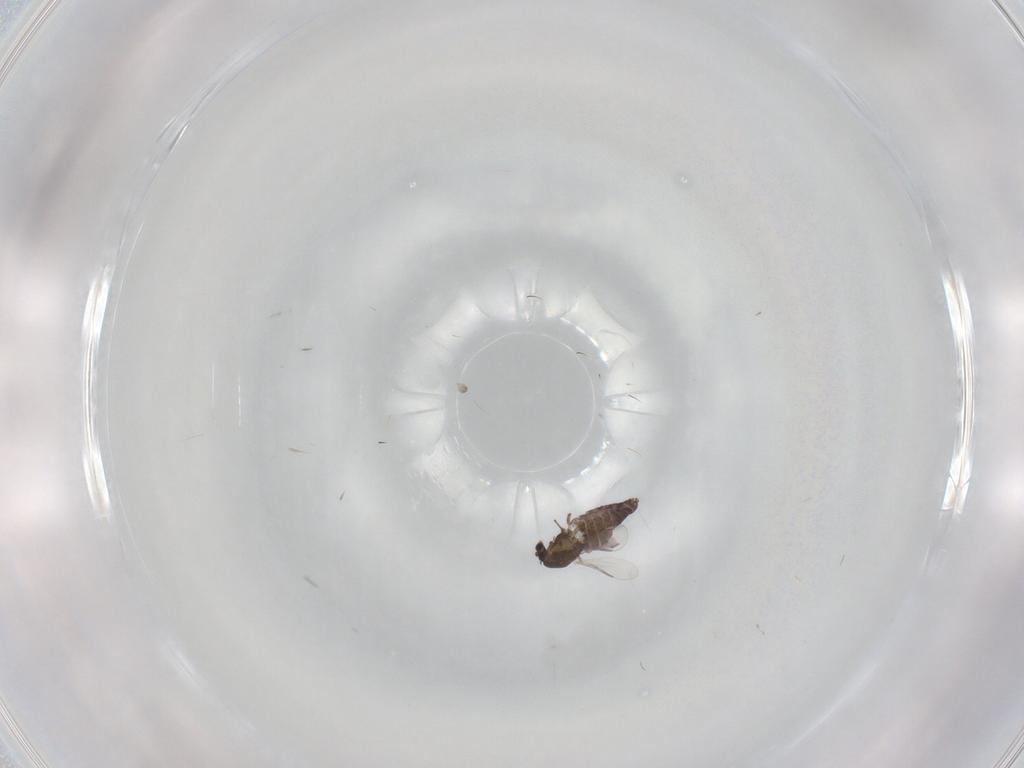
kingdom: Animalia
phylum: Arthropoda
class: Insecta
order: Diptera
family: Chironomidae
